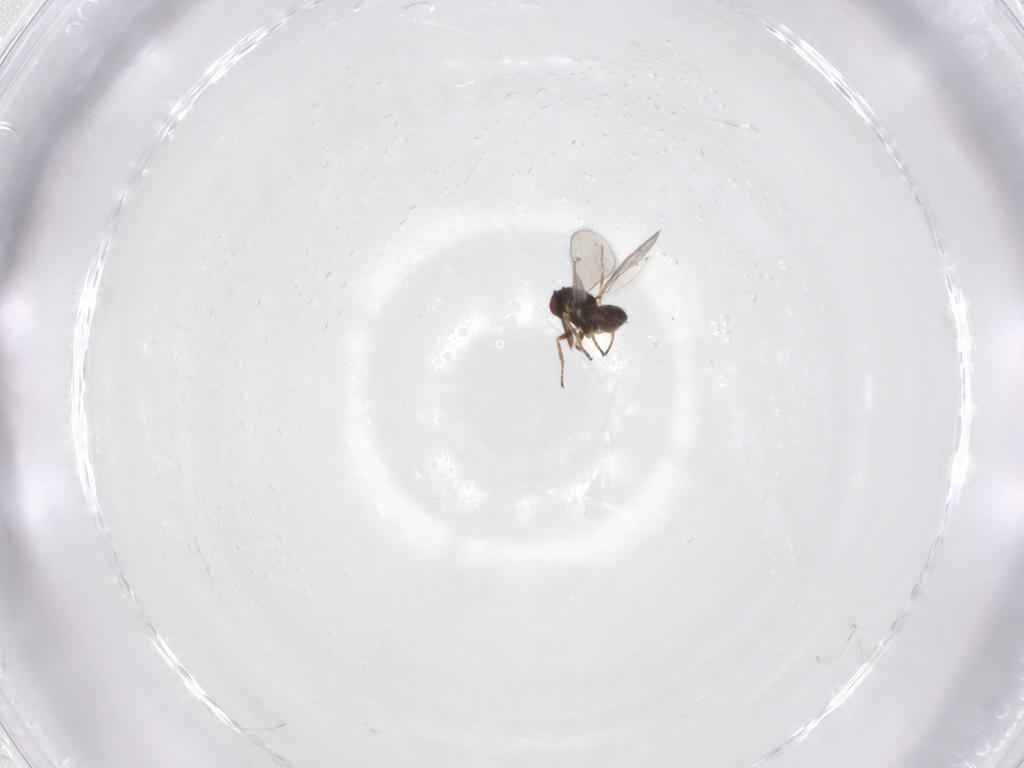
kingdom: Animalia
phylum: Arthropoda
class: Insecta
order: Hymenoptera
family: Eulophidae
